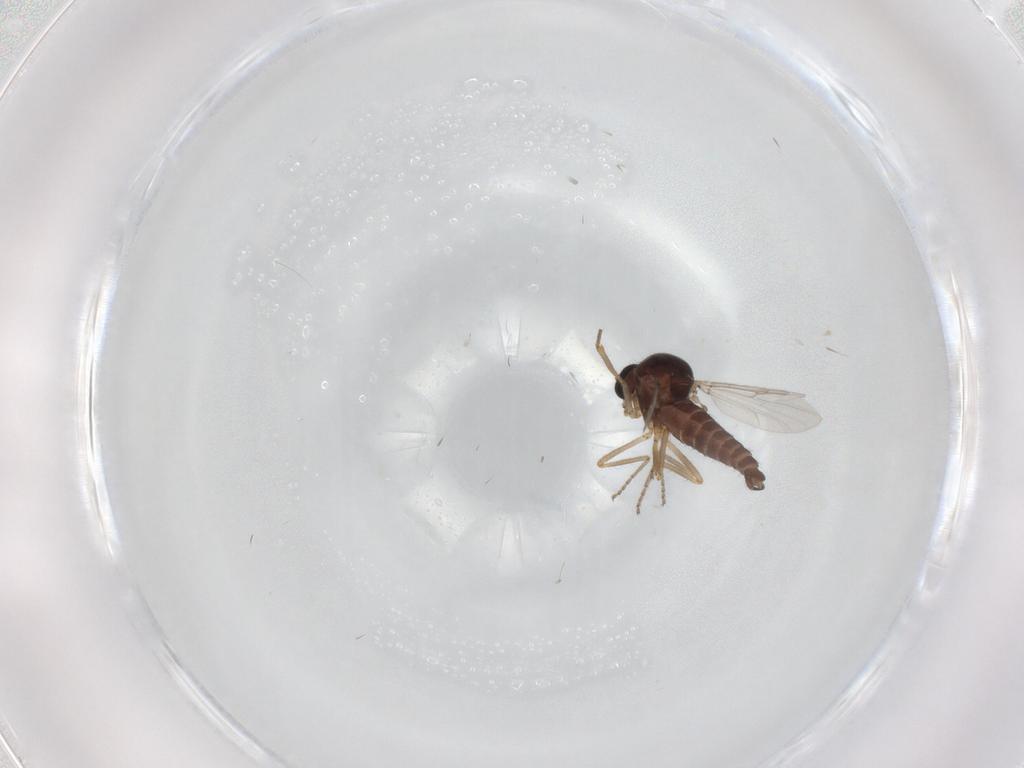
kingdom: Animalia
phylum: Arthropoda
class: Insecta
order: Diptera
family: Ceratopogonidae
